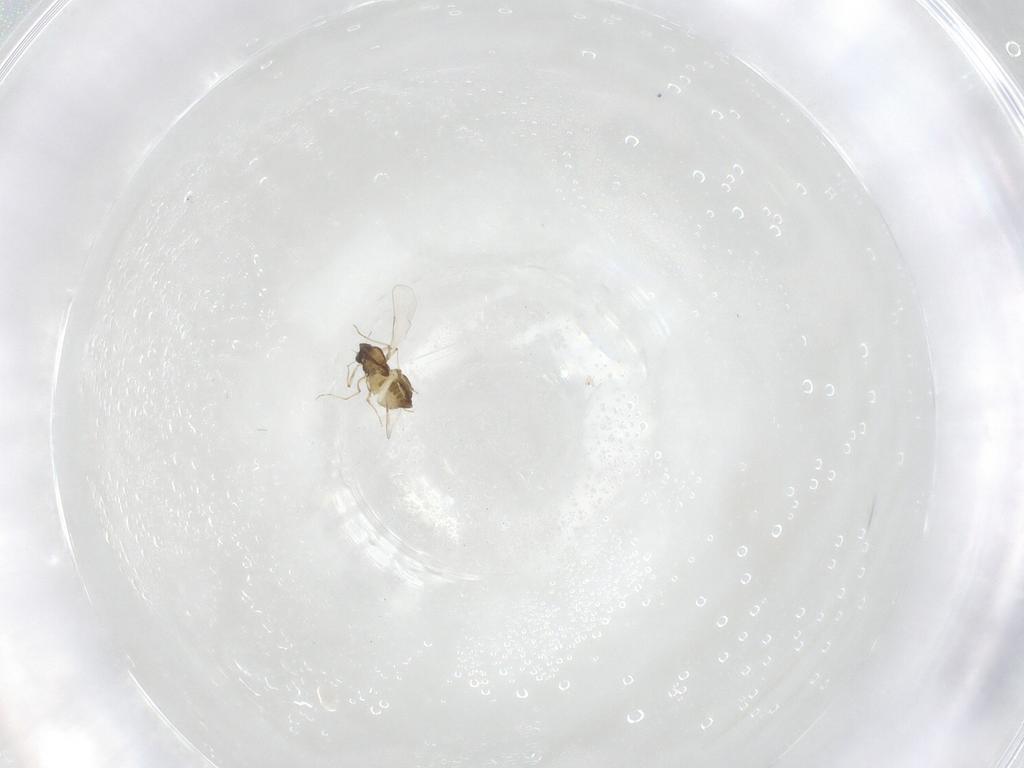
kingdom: Animalia
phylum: Arthropoda
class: Insecta
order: Diptera
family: Chironomidae
